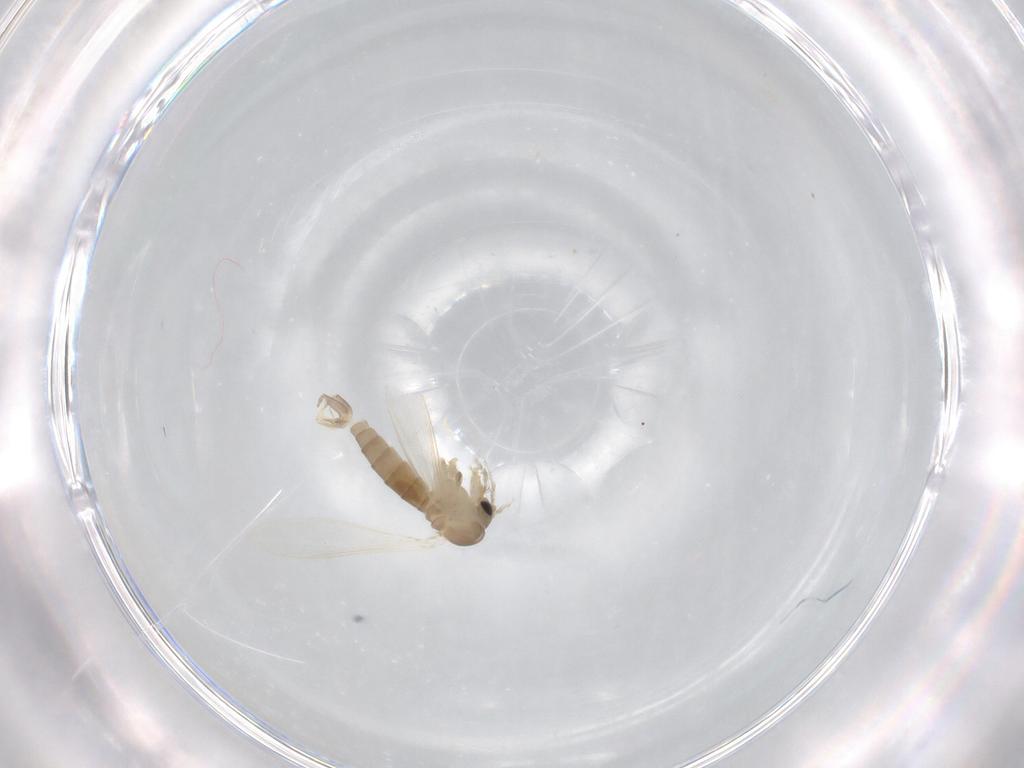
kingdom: Animalia
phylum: Arthropoda
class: Insecta
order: Diptera
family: Psychodidae
